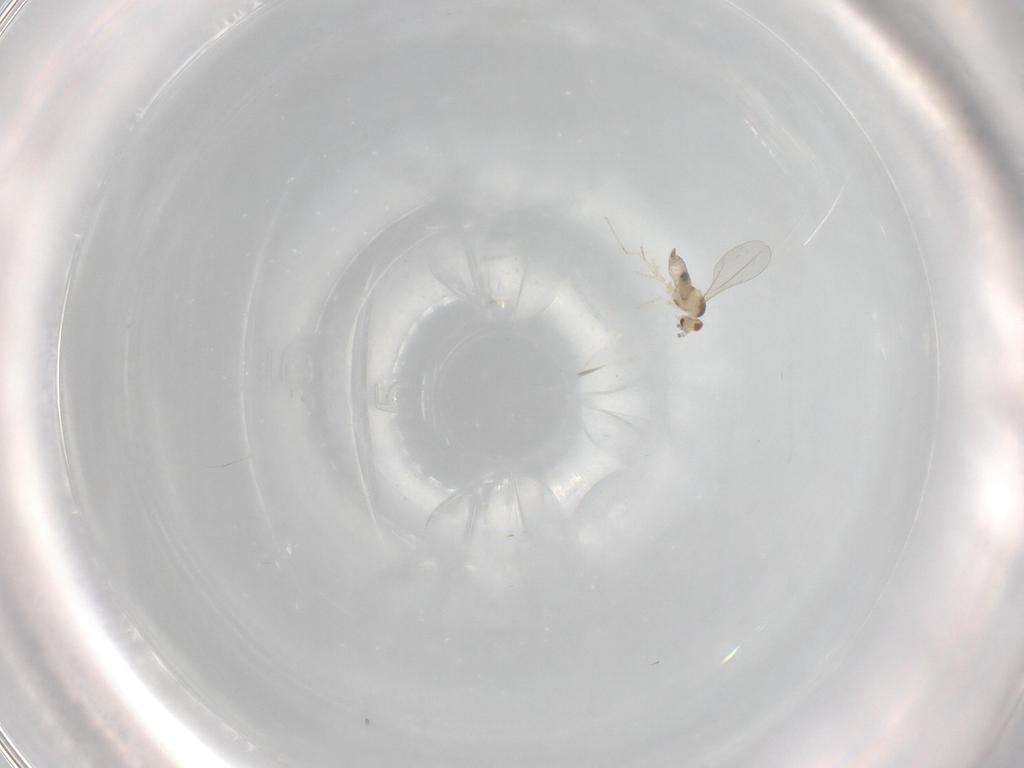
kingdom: Animalia
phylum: Arthropoda
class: Insecta
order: Diptera
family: Cecidomyiidae
